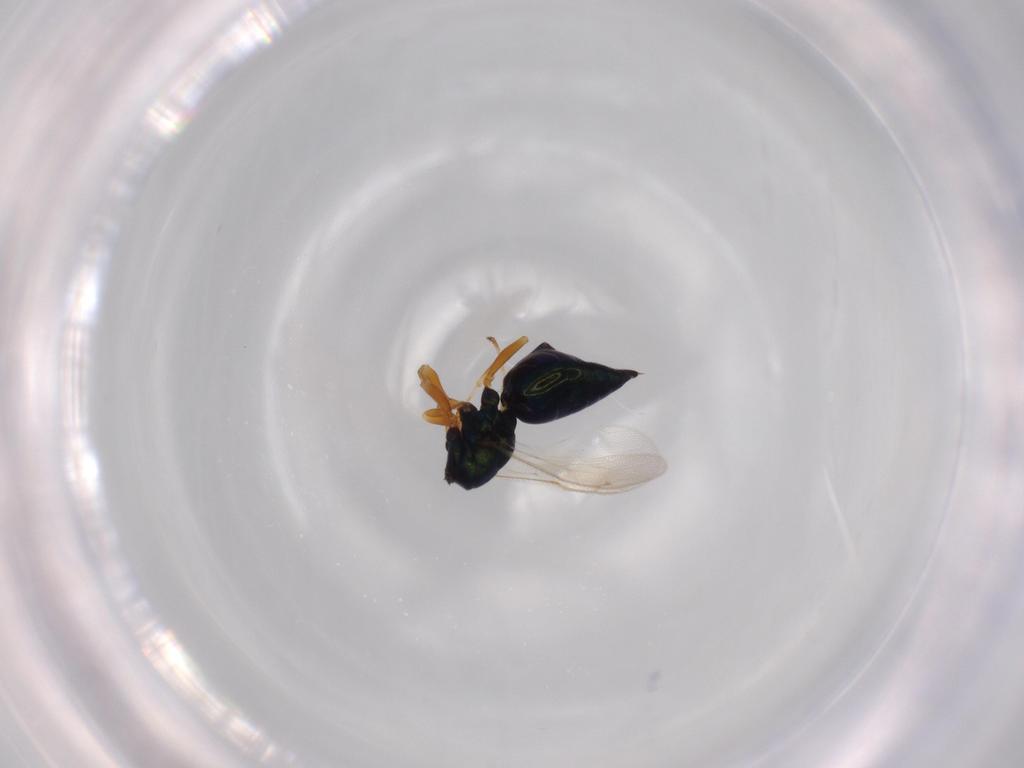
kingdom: Animalia
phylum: Arthropoda
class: Insecta
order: Hymenoptera
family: Pteromalidae
